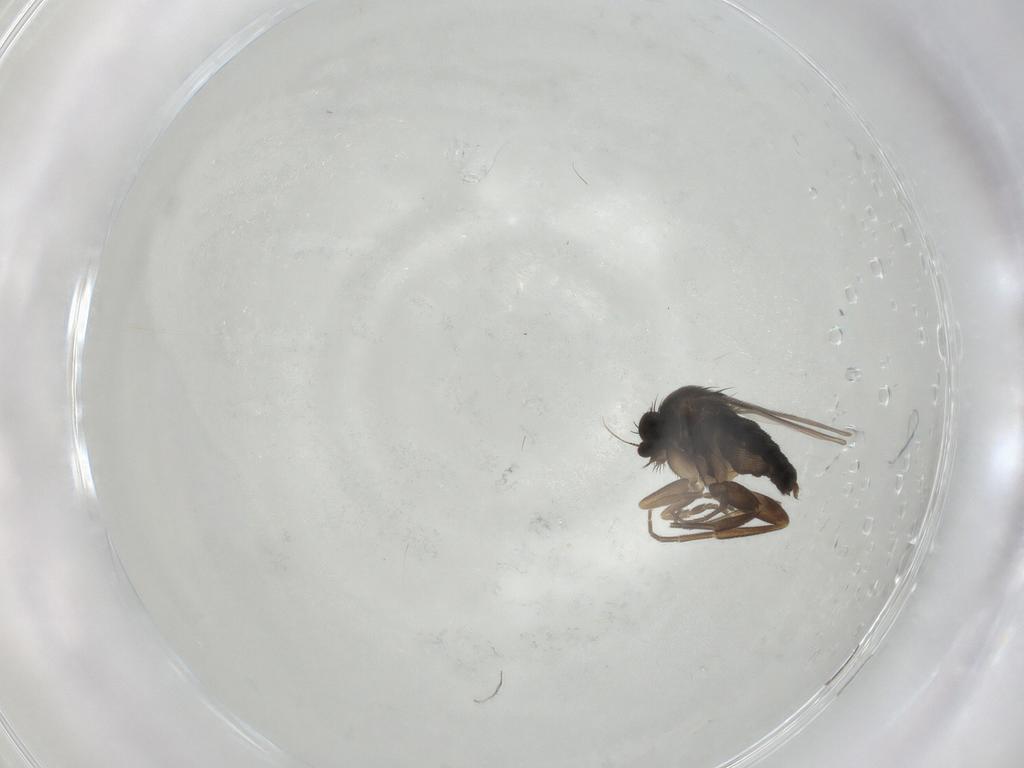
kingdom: Animalia
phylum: Arthropoda
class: Insecta
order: Diptera
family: Phoridae
